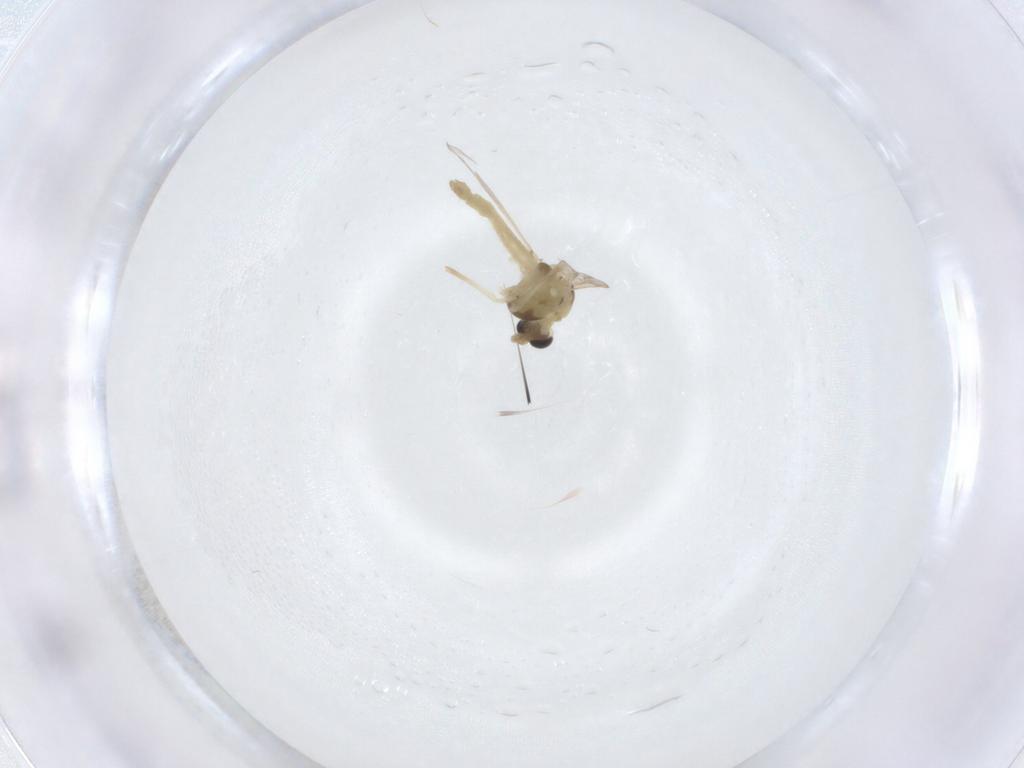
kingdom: Animalia
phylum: Arthropoda
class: Insecta
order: Diptera
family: Chironomidae
